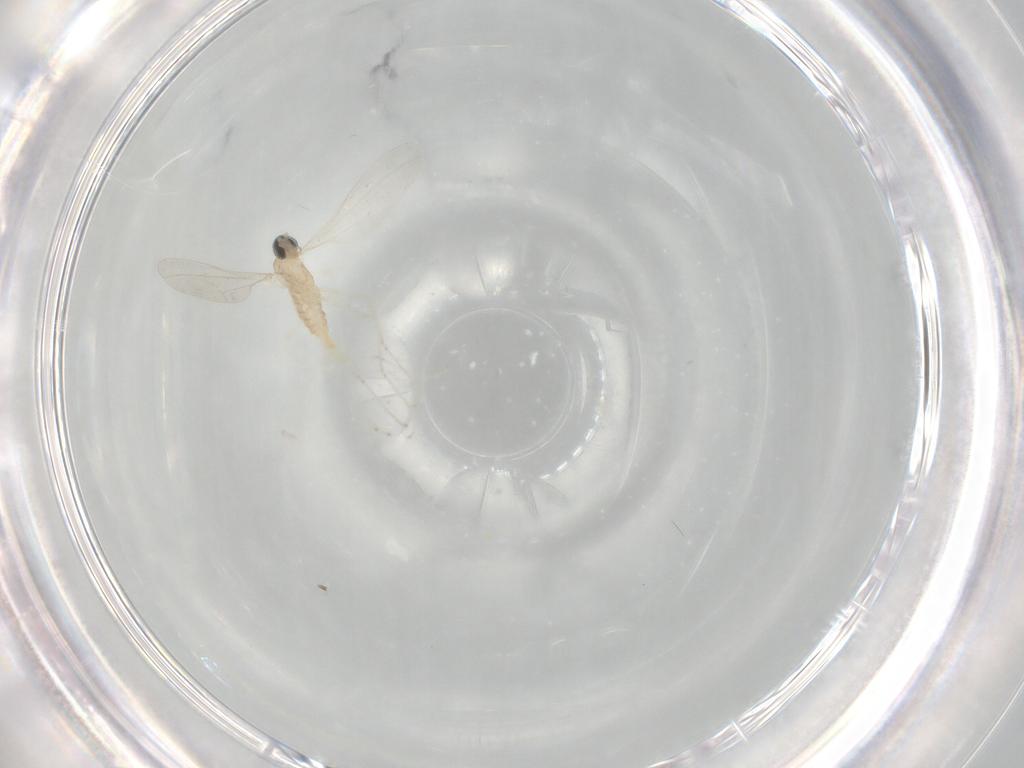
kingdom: Animalia
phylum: Arthropoda
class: Insecta
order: Diptera
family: Cecidomyiidae
